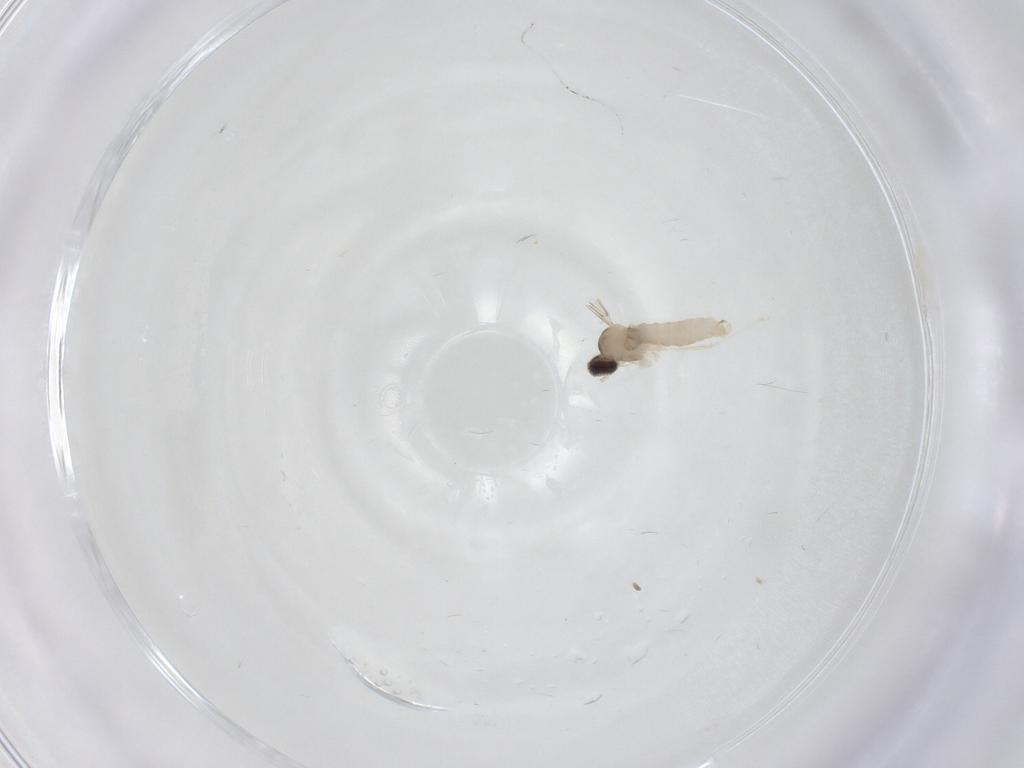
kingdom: Animalia
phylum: Arthropoda
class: Insecta
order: Diptera
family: Cecidomyiidae
